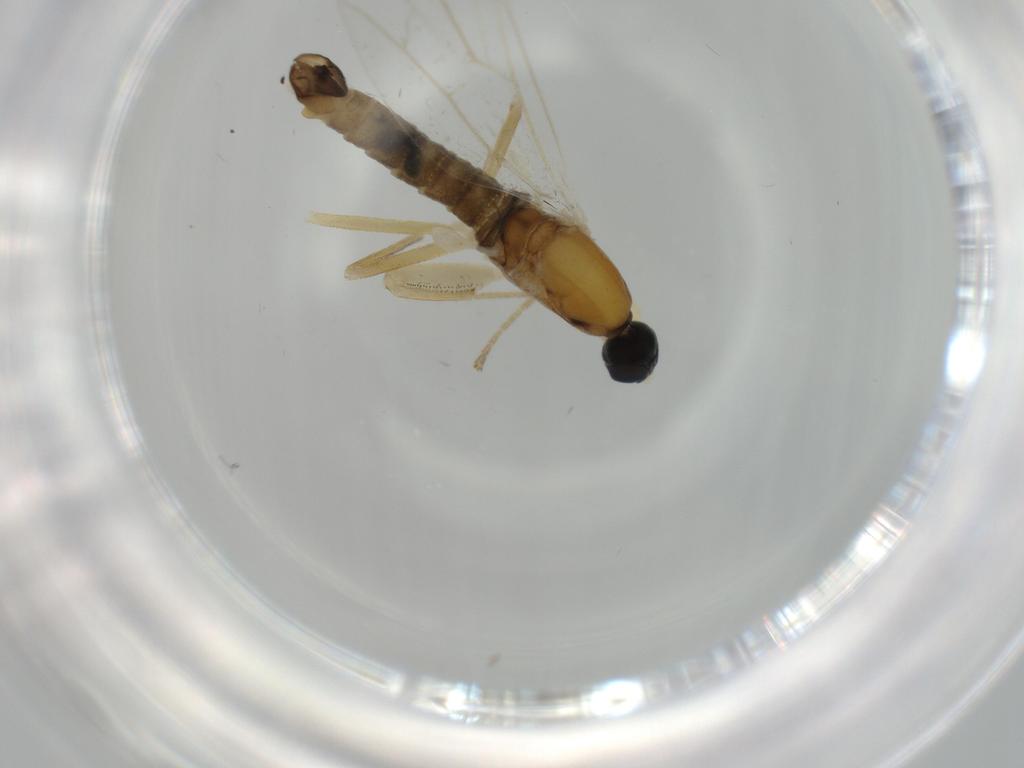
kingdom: Animalia
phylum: Arthropoda
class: Insecta
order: Diptera
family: Empididae
